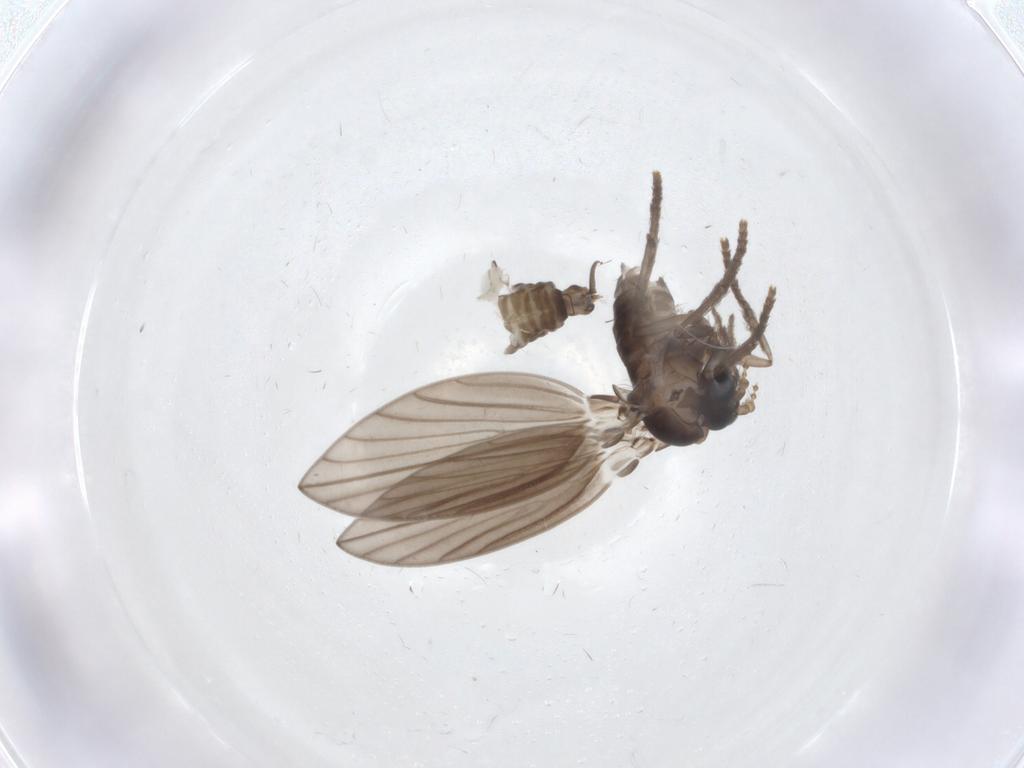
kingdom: Animalia
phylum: Arthropoda
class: Insecta
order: Diptera
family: Psychodidae
